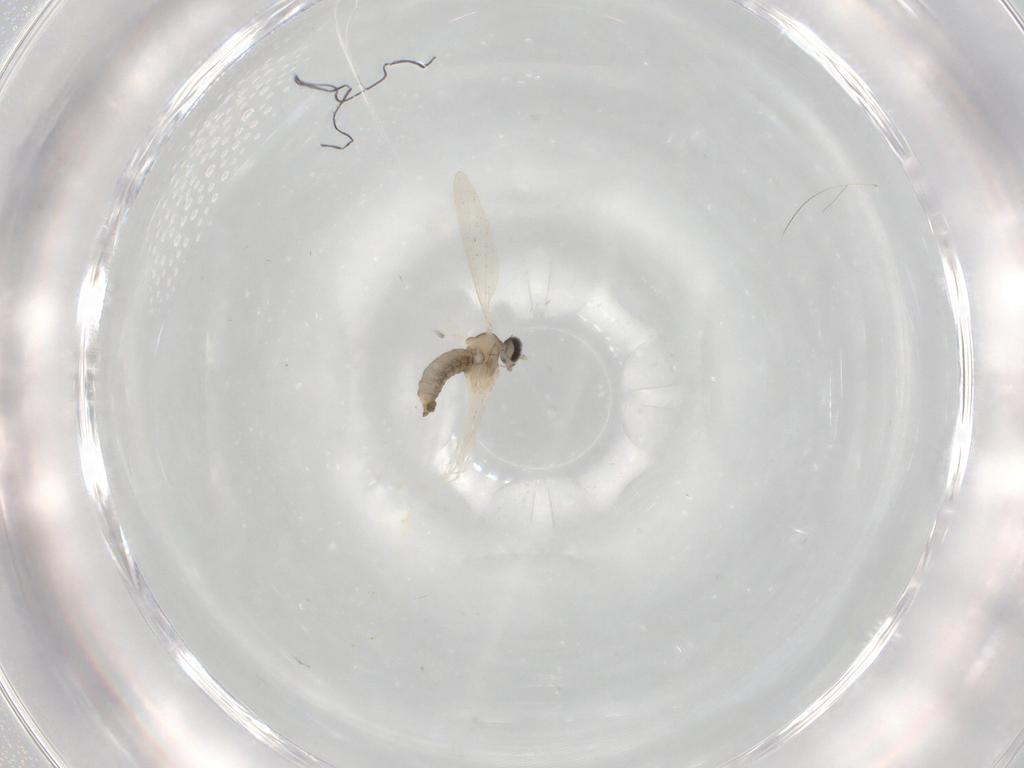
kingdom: Animalia
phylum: Arthropoda
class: Insecta
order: Diptera
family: Cecidomyiidae
